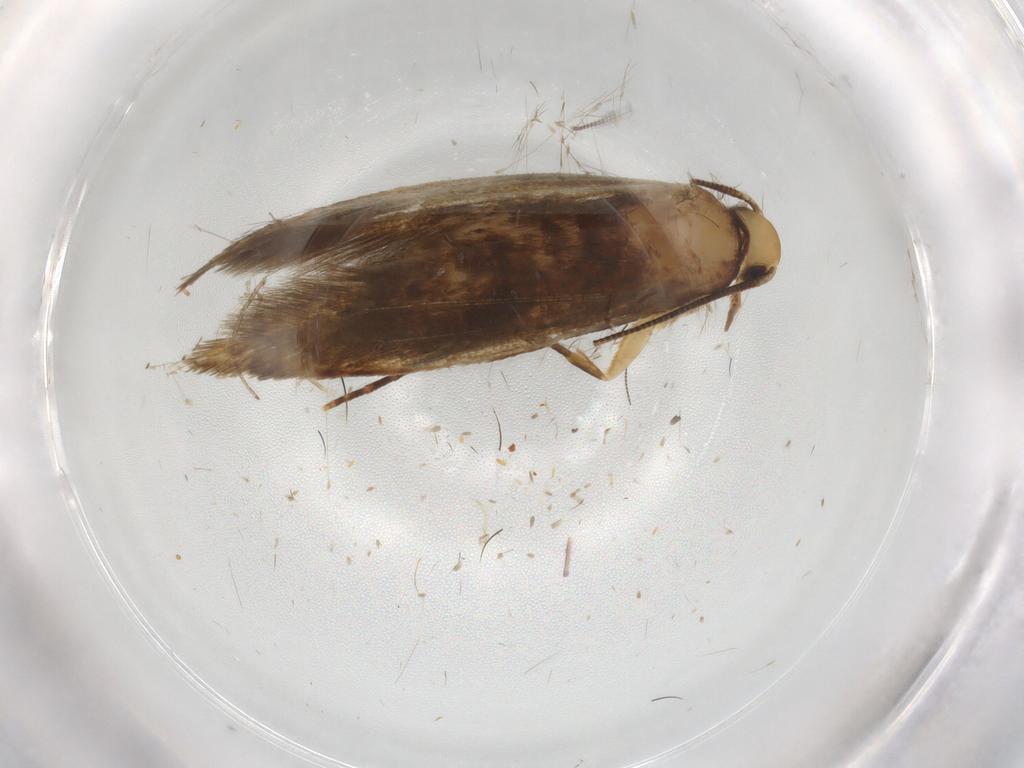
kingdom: Animalia
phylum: Arthropoda
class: Insecta
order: Lepidoptera
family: Tineidae
